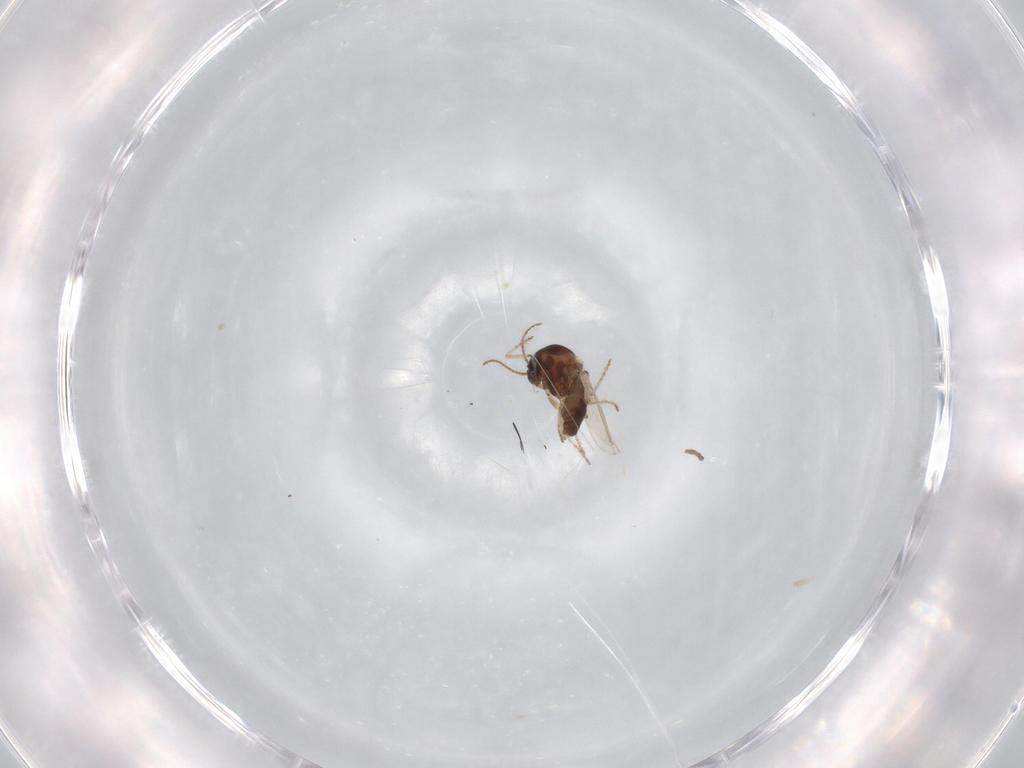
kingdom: Animalia
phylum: Arthropoda
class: Insecta
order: Diptera
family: Ephydridae
